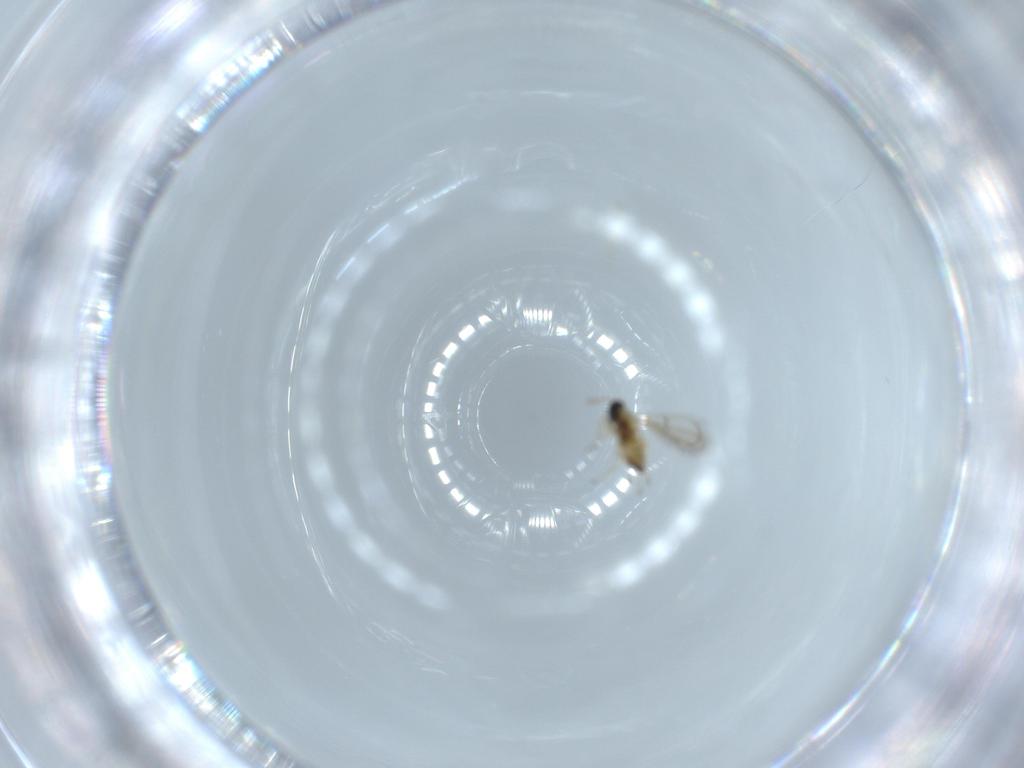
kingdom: Animalia
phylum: Arthropoda
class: Insecta
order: Hymenoptera
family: Trichogrammatidae
